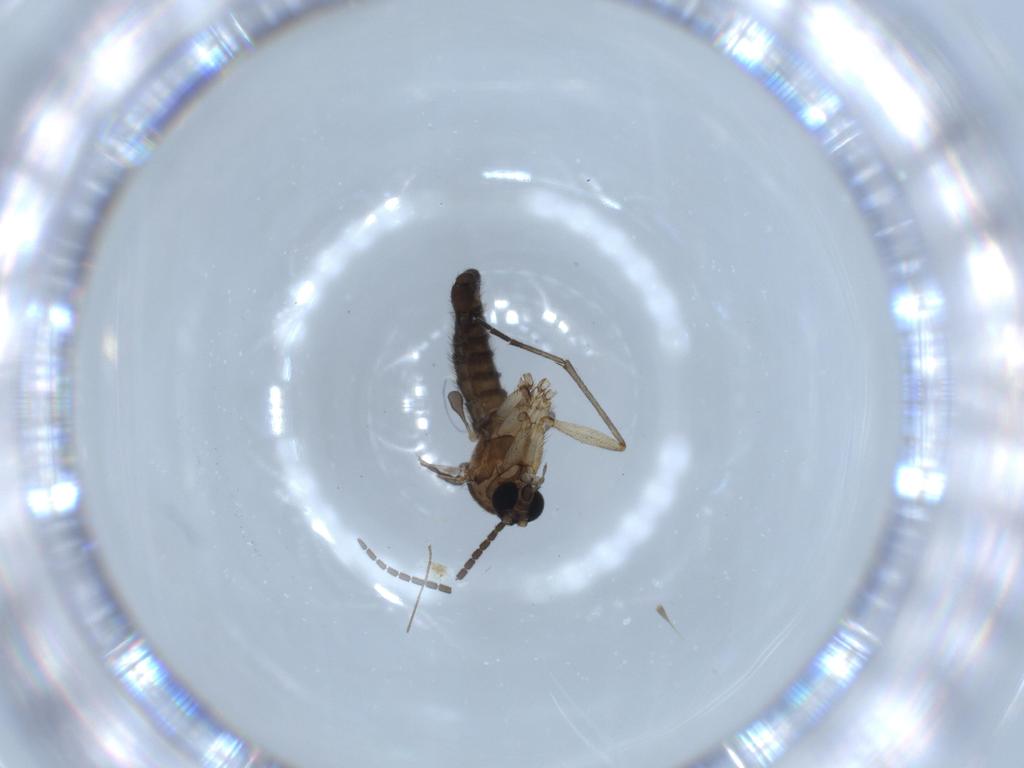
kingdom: Animalia
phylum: Arthropoda
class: Insecta
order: Diptera
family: Sciaridae
